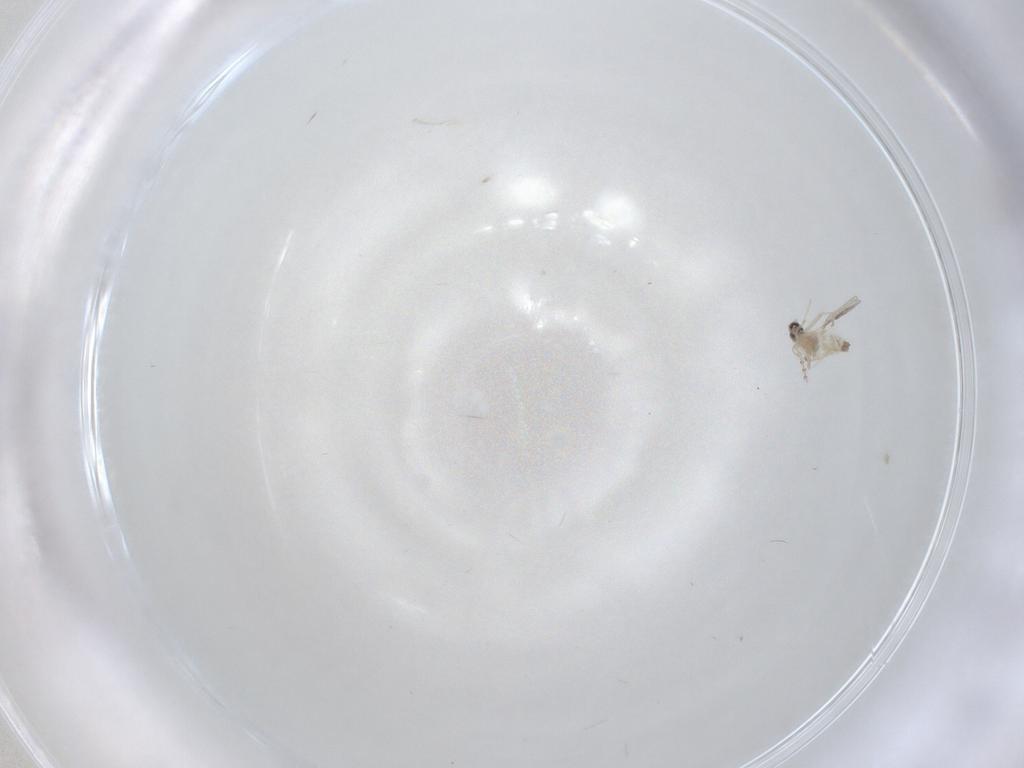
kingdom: Animalia
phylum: Arthropoda
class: Insecta
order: Diptera
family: Cecidomyiidae
